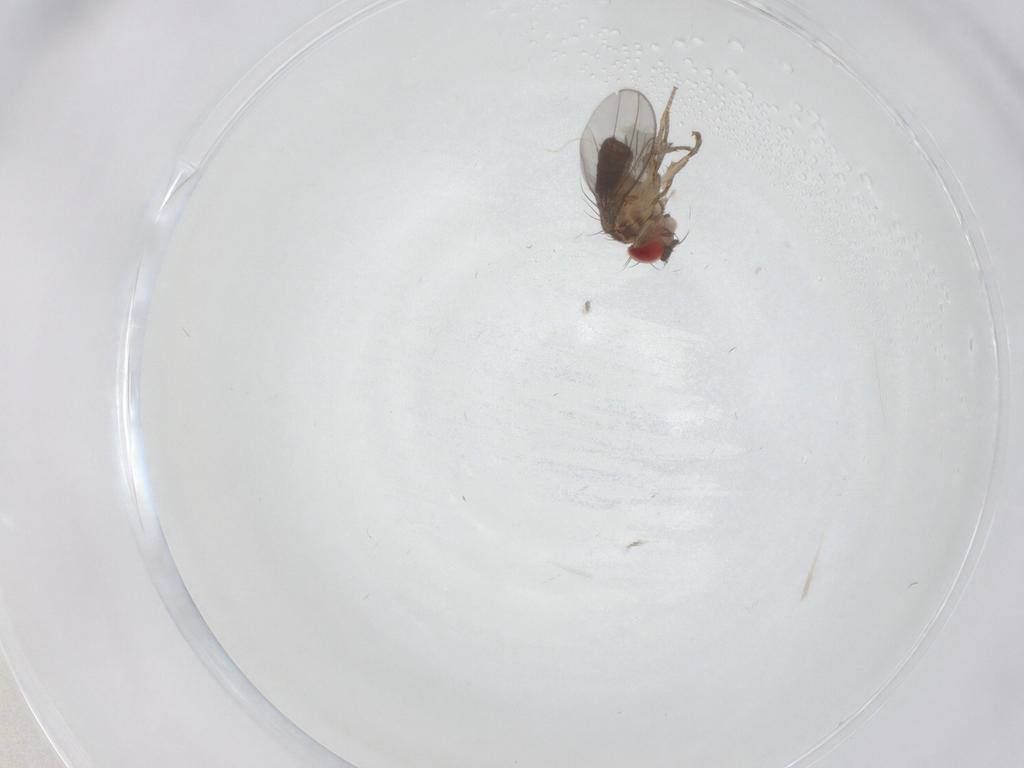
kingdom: Animalia
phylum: Arthropoda
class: Insecta
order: Diptera
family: Drosophilidae
